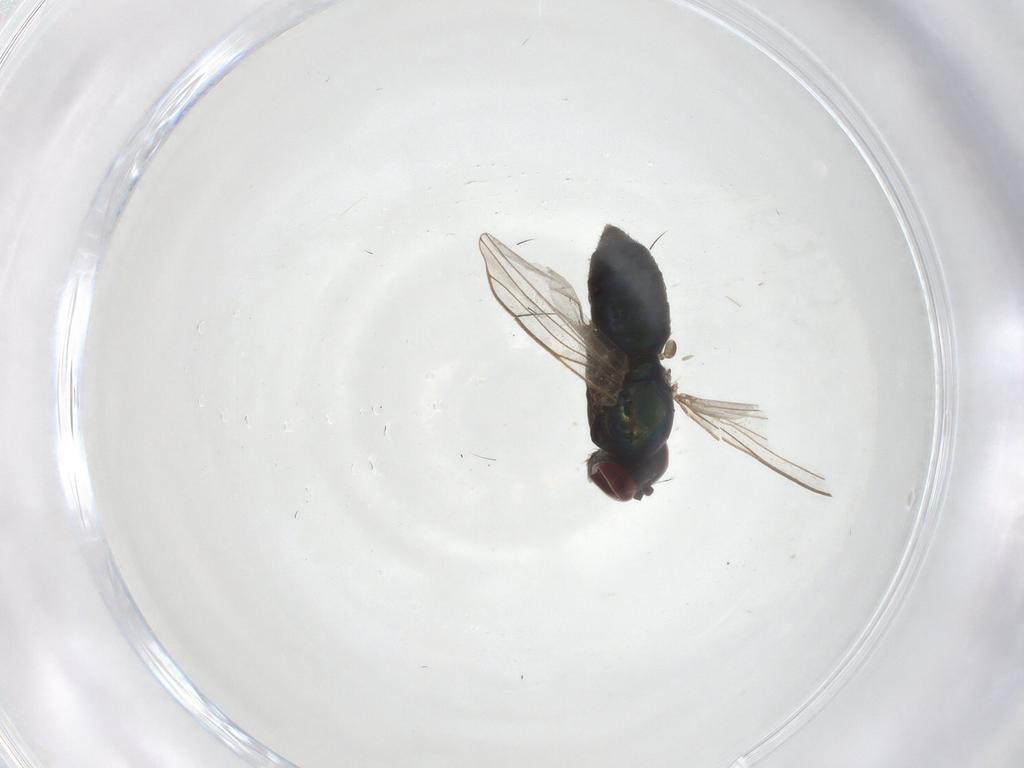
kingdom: Animalia
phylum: Arthropoda
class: Insecta
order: Diptera
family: Dolichopodidae
